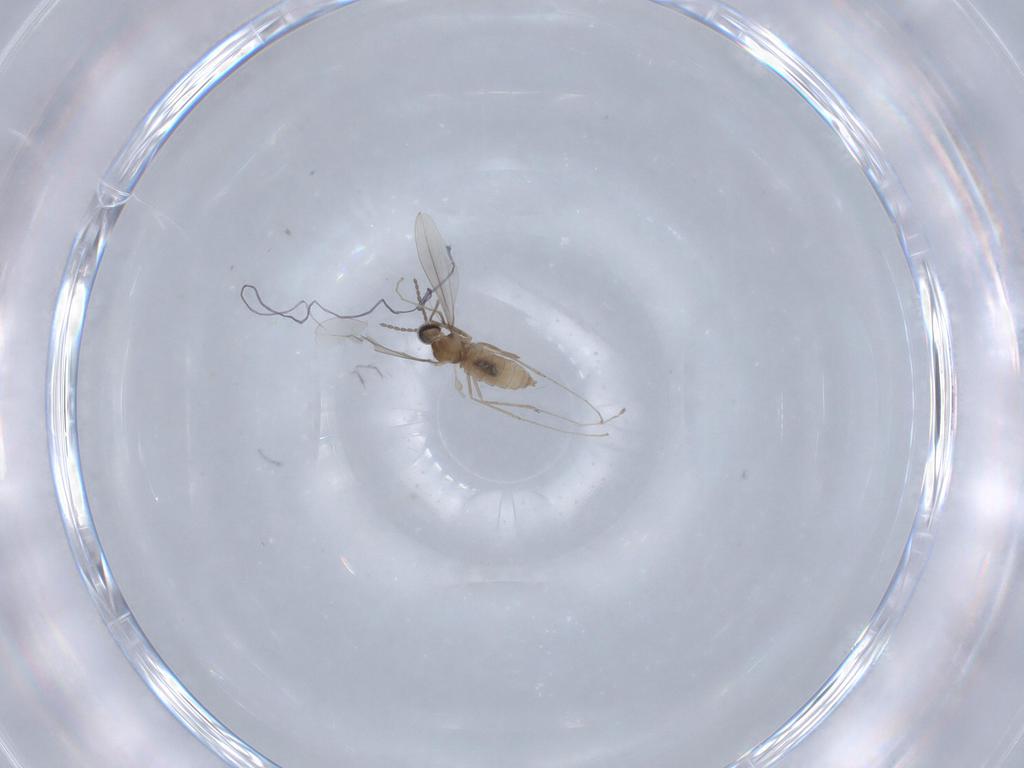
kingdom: Animalia
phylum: Arthropoda
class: Insecta
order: Diptera
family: Cecidomyiidae
